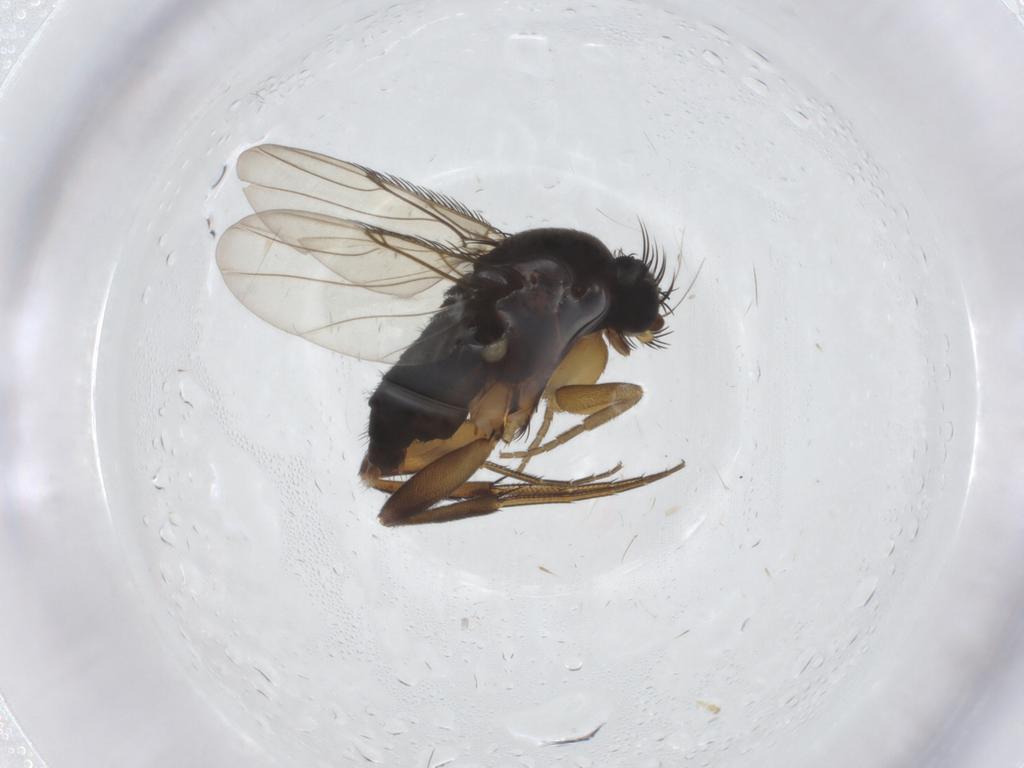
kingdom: Animalia
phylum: Arthropoda
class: Insecta
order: Diptera
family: Phoridae
